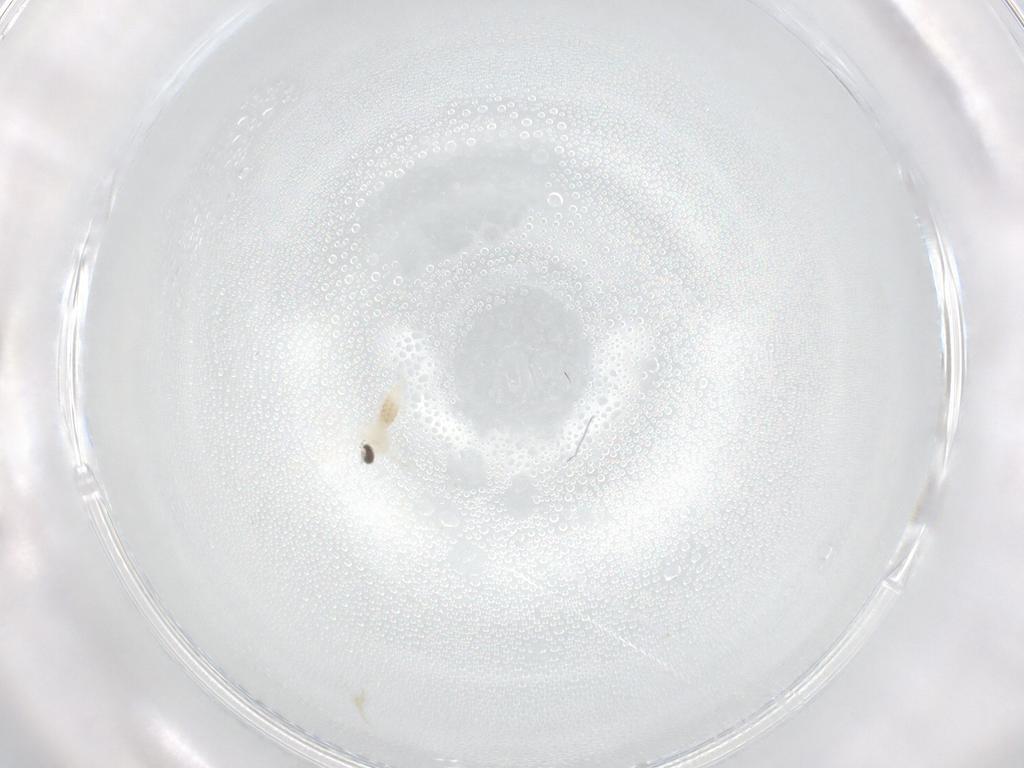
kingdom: Animalia
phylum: Arthropoda
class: Insecta
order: Diptera
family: Cecidomyiidae
